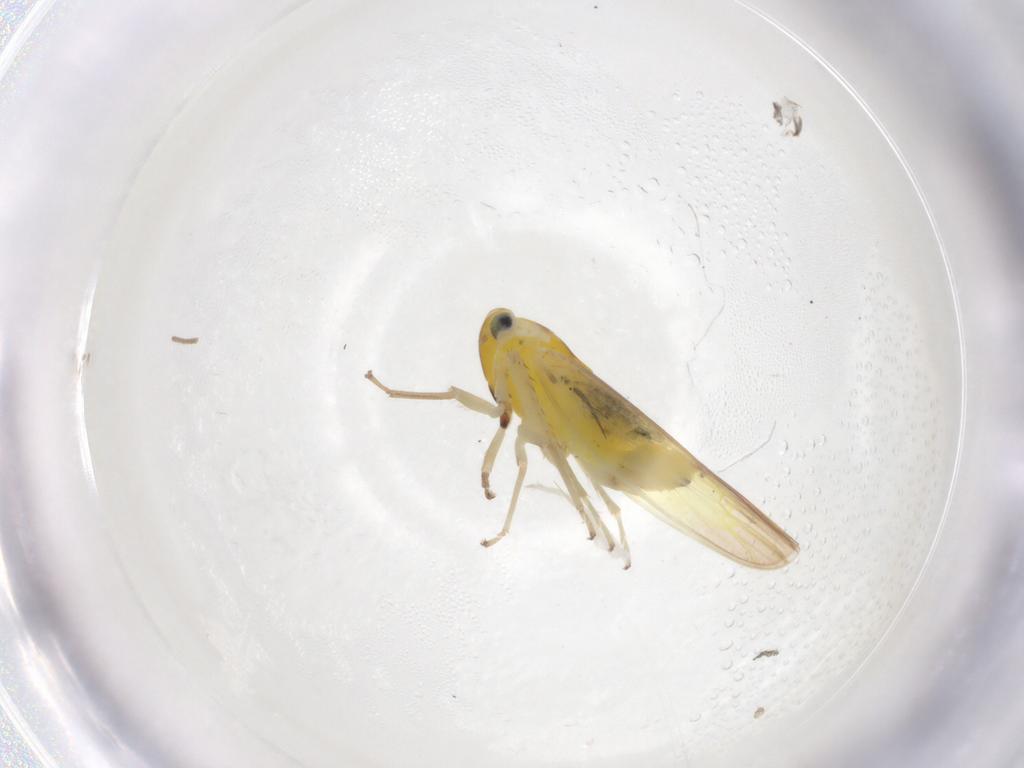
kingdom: Animalia
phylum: Arthropoda
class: Insecta
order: Hemiptera
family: Cicadellidae
